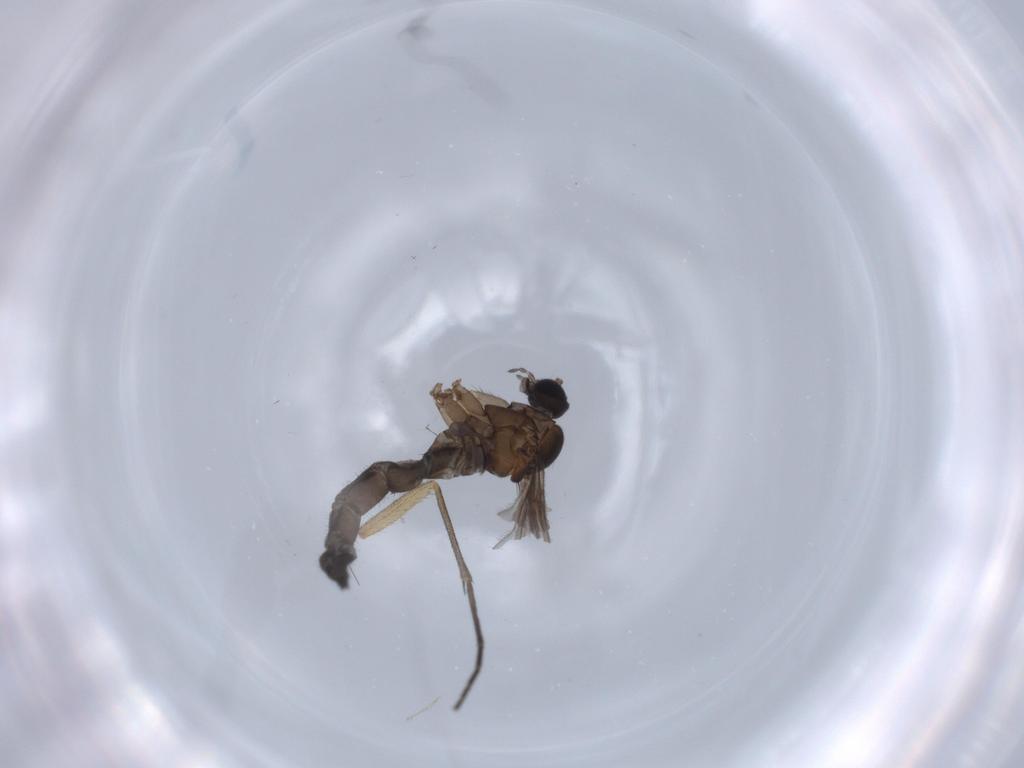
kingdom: Animalia
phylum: Arthropoda
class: Insecta
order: Diptera
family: Sciaridae
